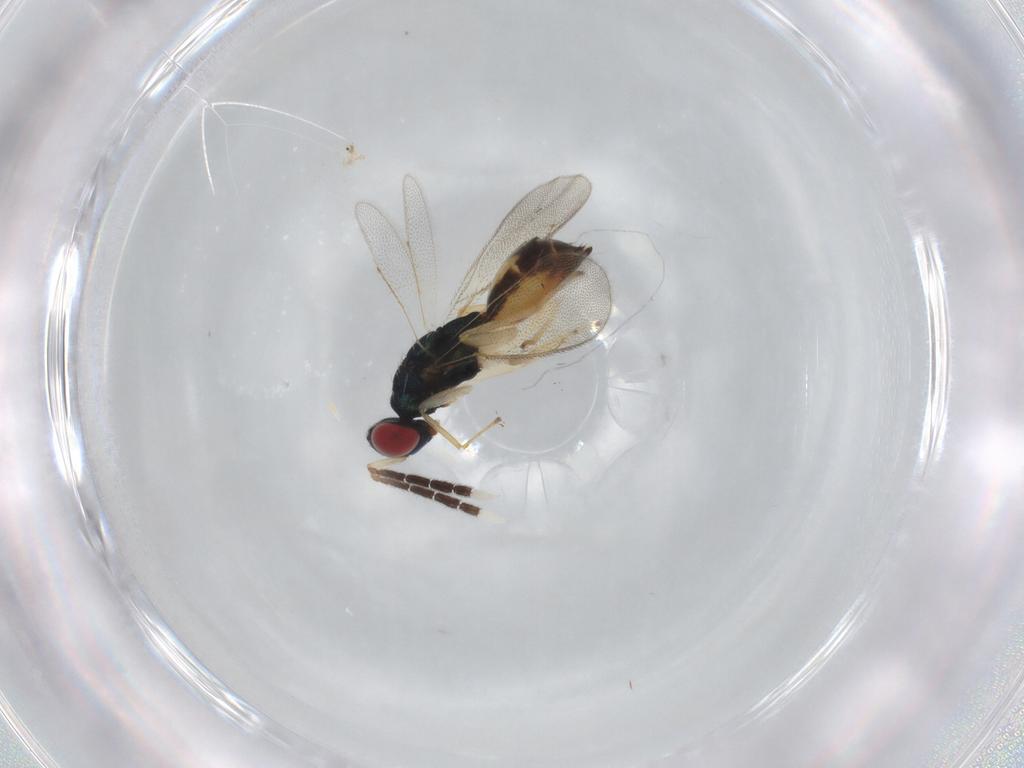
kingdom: Animalia
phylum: Arthropoda
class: Insecta
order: Hymenoptera
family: Eulophidae
